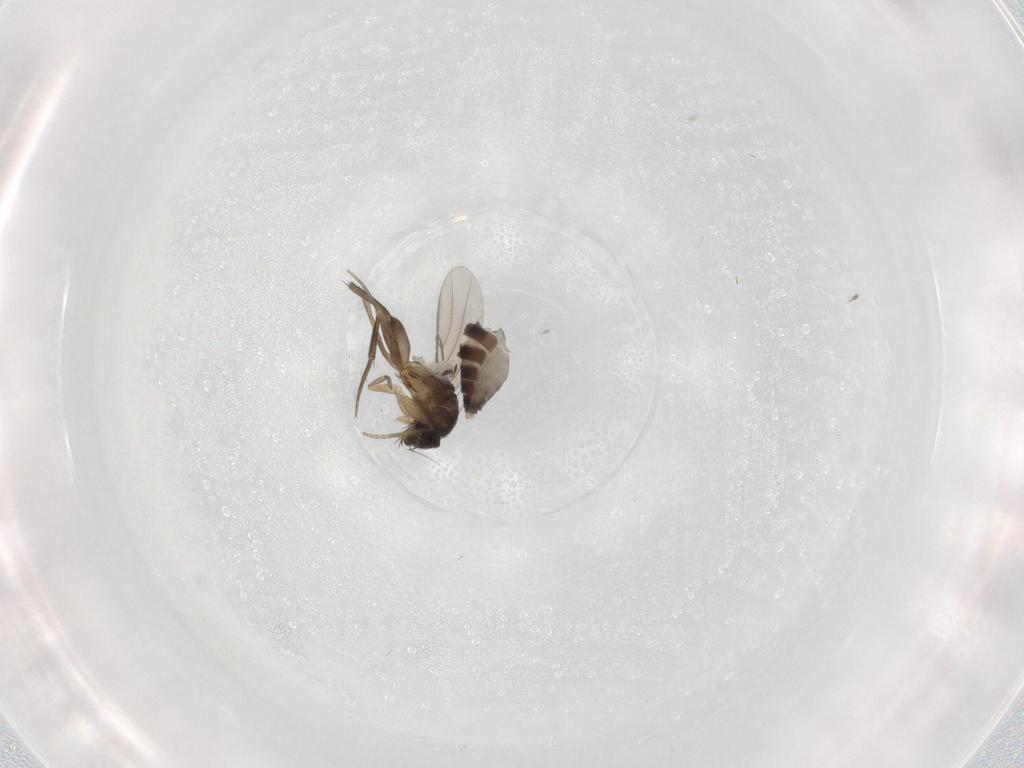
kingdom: Animalia
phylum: Arthropoda
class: Insecta
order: Diptera
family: Phoridae
